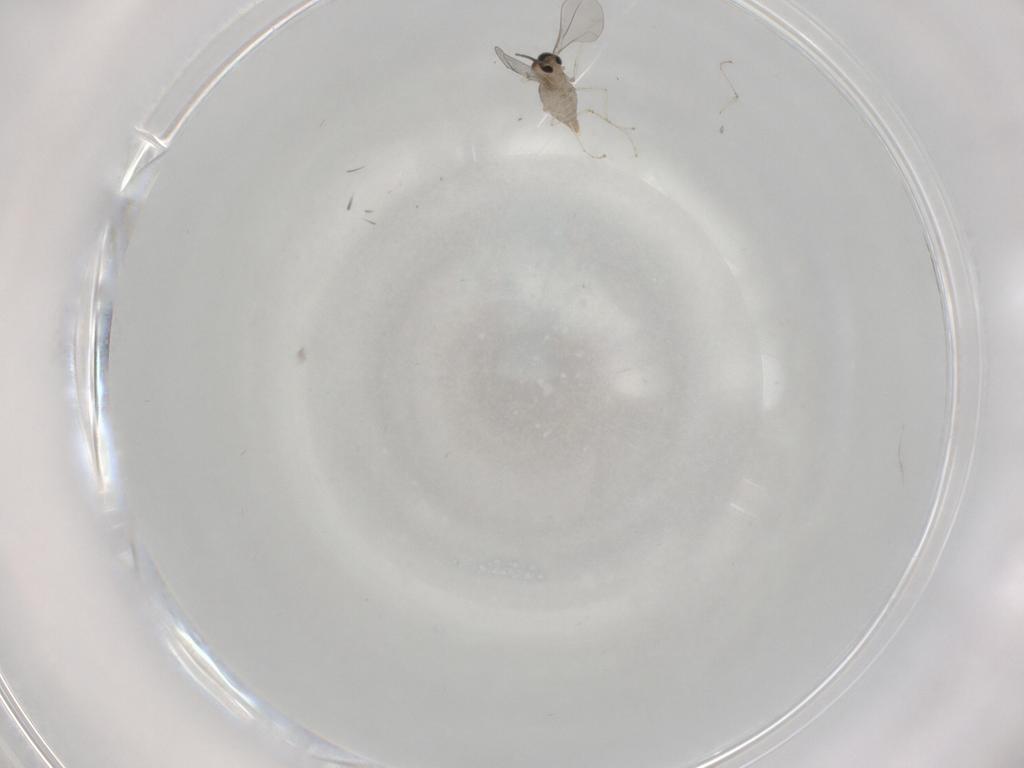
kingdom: Animalia
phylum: Arthropoda
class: Insecta
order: Diptera
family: Cecidomyiidae
